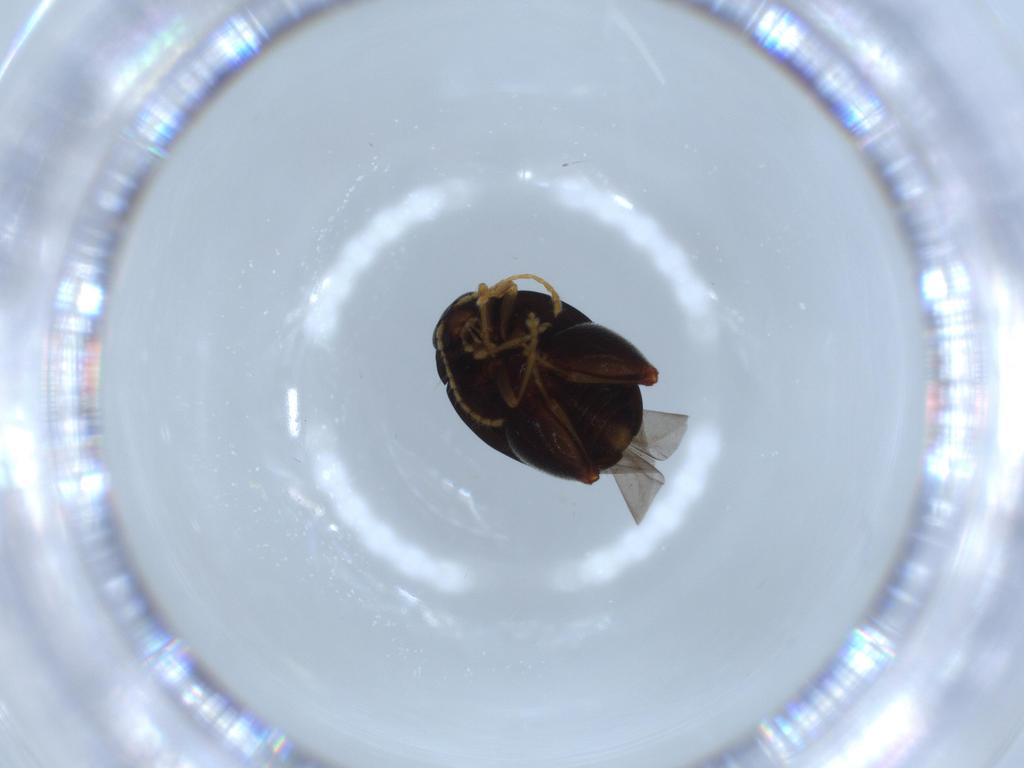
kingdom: Animalia
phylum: Arthropoda
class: Insecta
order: Coleoptera
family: Chrysomelidae
